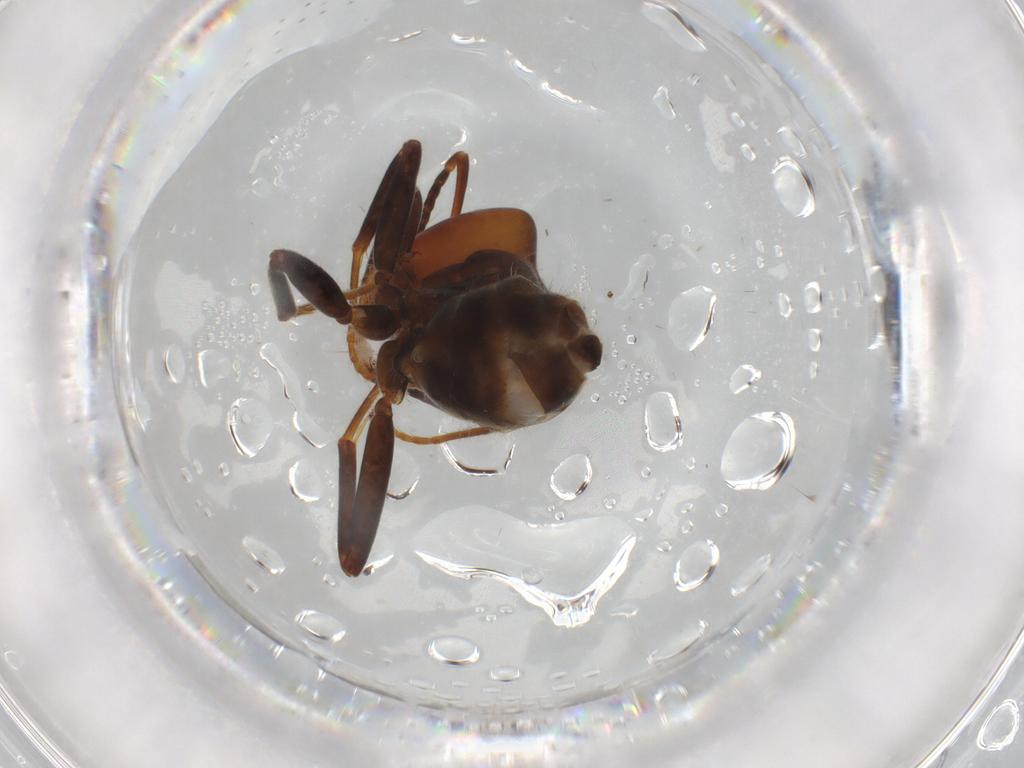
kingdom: Animalia
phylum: Arthropoda
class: Insecta
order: Hymenoptera
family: Formicidae
